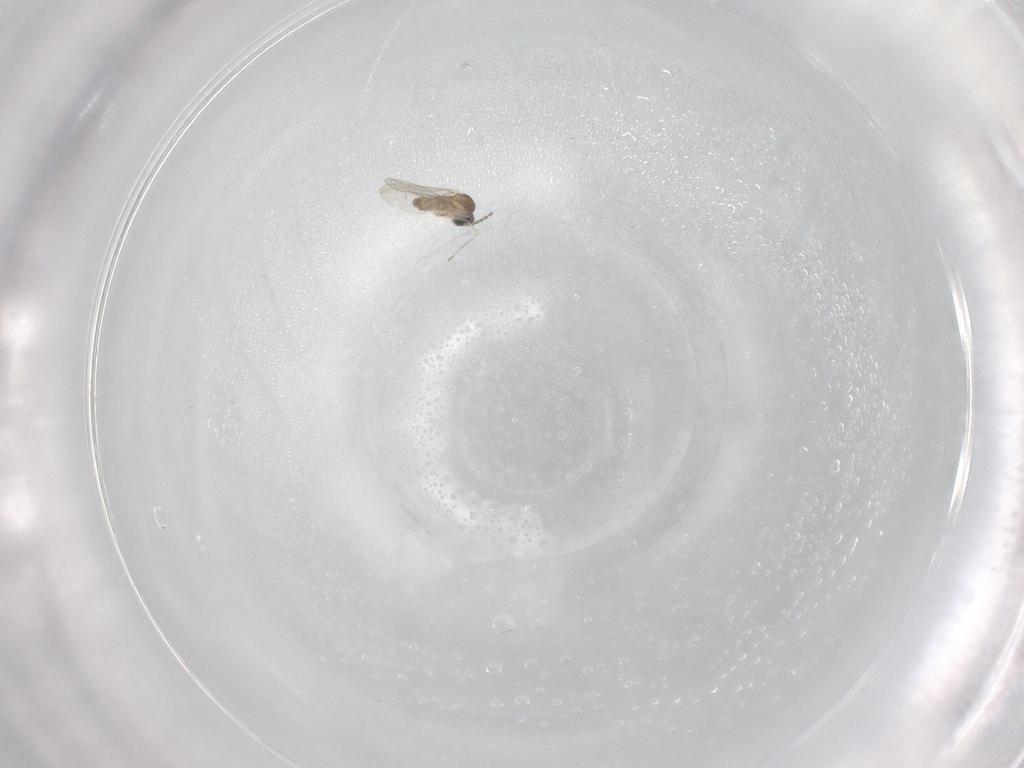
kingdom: Animalia
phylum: Arthropoda
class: Insecta
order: Diptera
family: Cecidomyiidae
